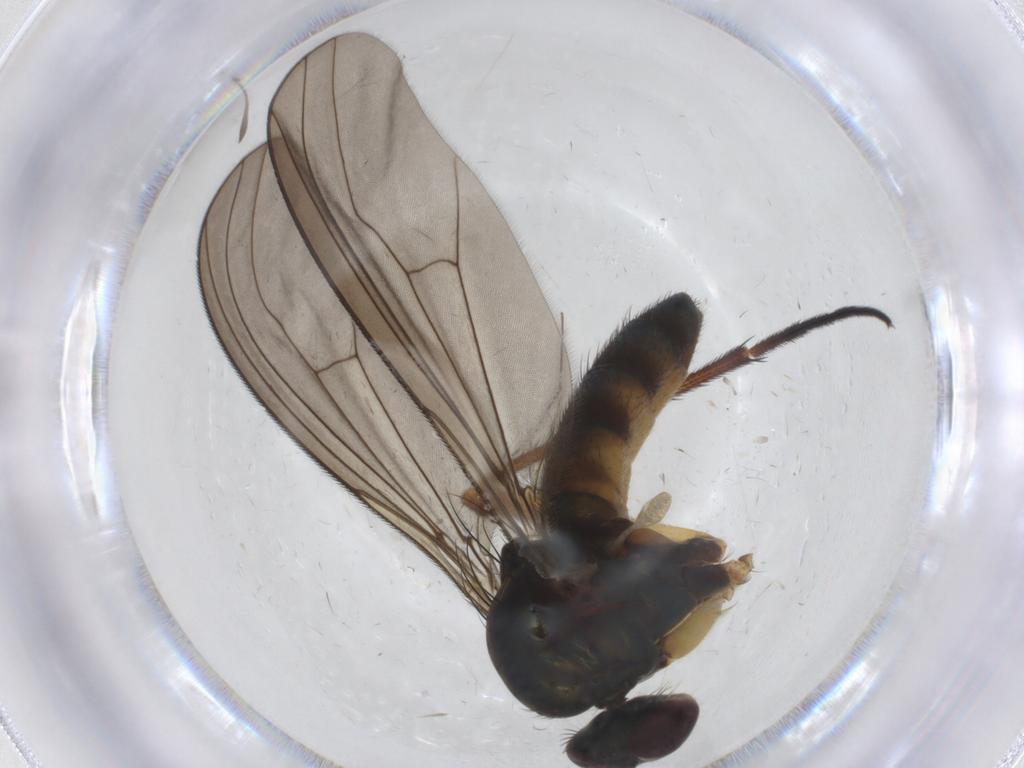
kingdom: Animalia
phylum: Arthropoda
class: Insecta
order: Diptera
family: Dolichopodidae
